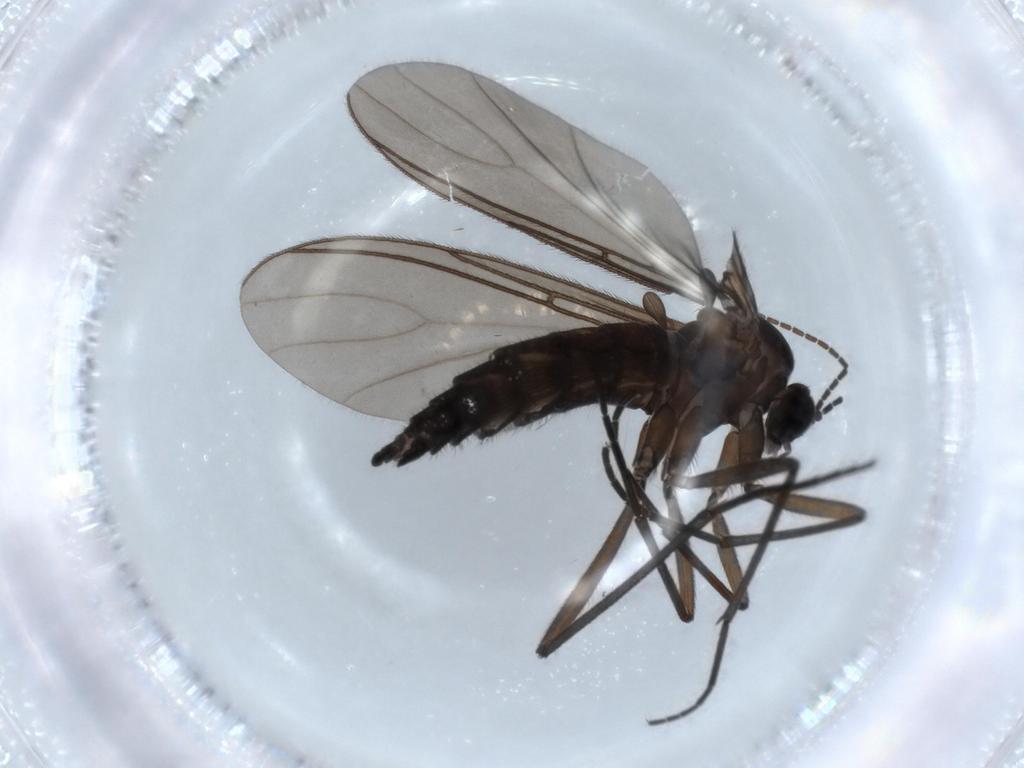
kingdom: Animalia
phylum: Arthropoda
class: Insecta
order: Diptera
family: Sciaridae
